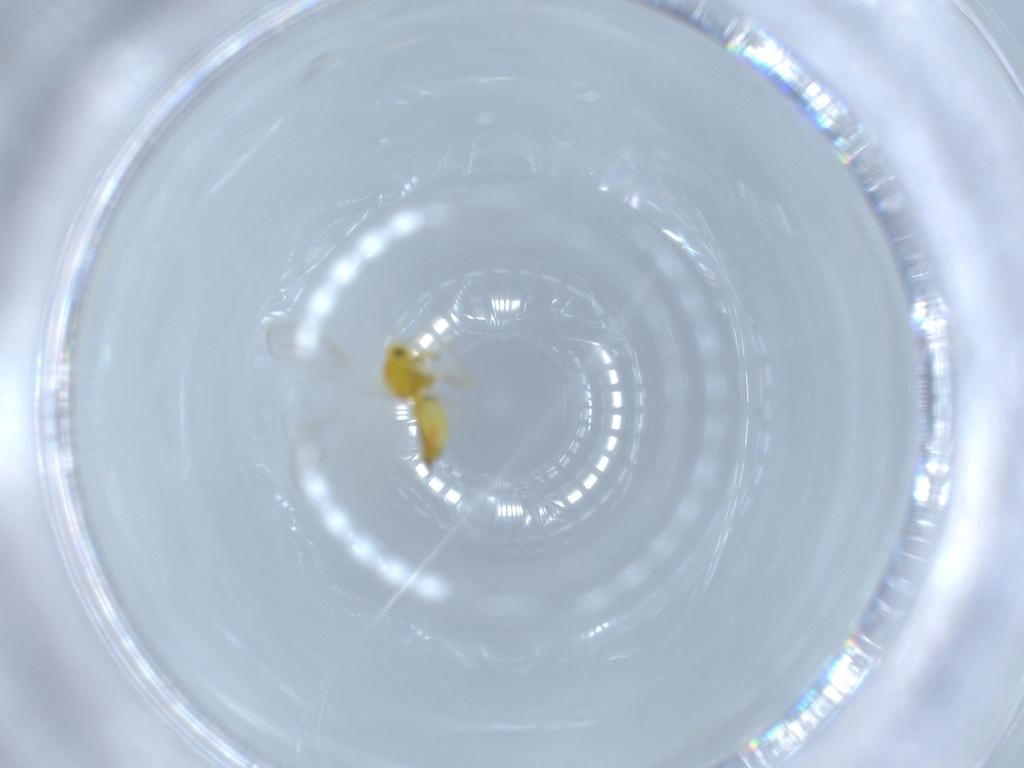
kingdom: Animalia
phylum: Arthropoda
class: Insecta
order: Hemiptera
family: Aleyrodidae
